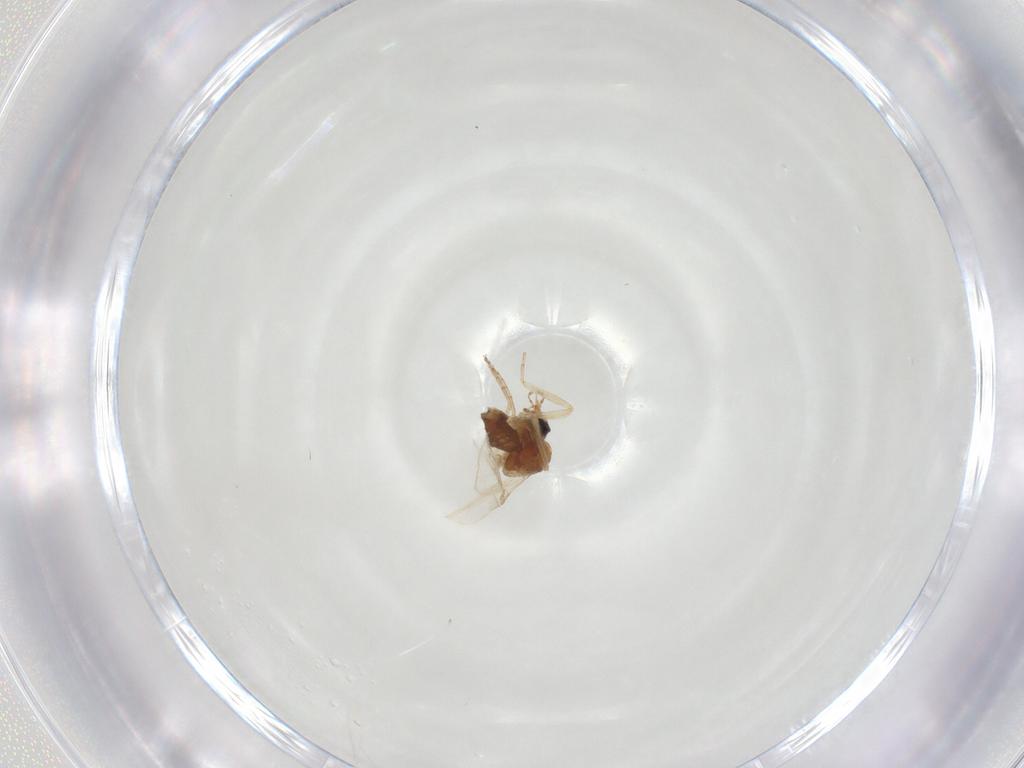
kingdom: Animalia
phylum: Arthropoda
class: Insecta
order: Diptera
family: Ceratopogonidae
